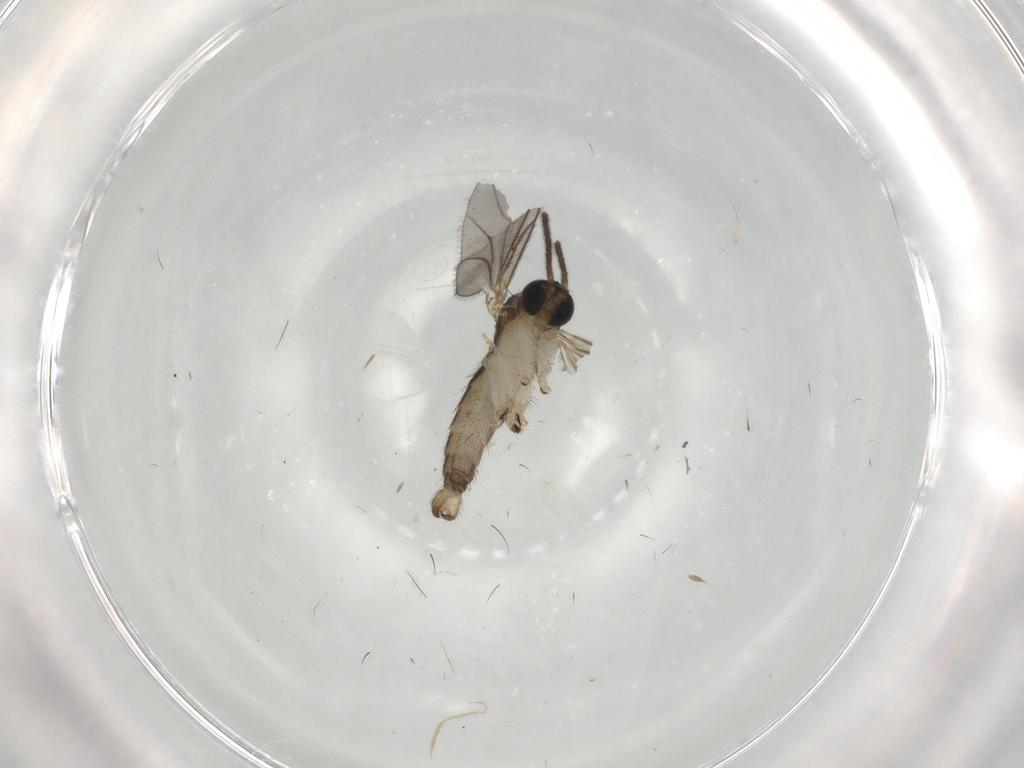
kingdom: Animalia
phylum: Arthropoda
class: Insecta
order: Diptera
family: Sciaridae
